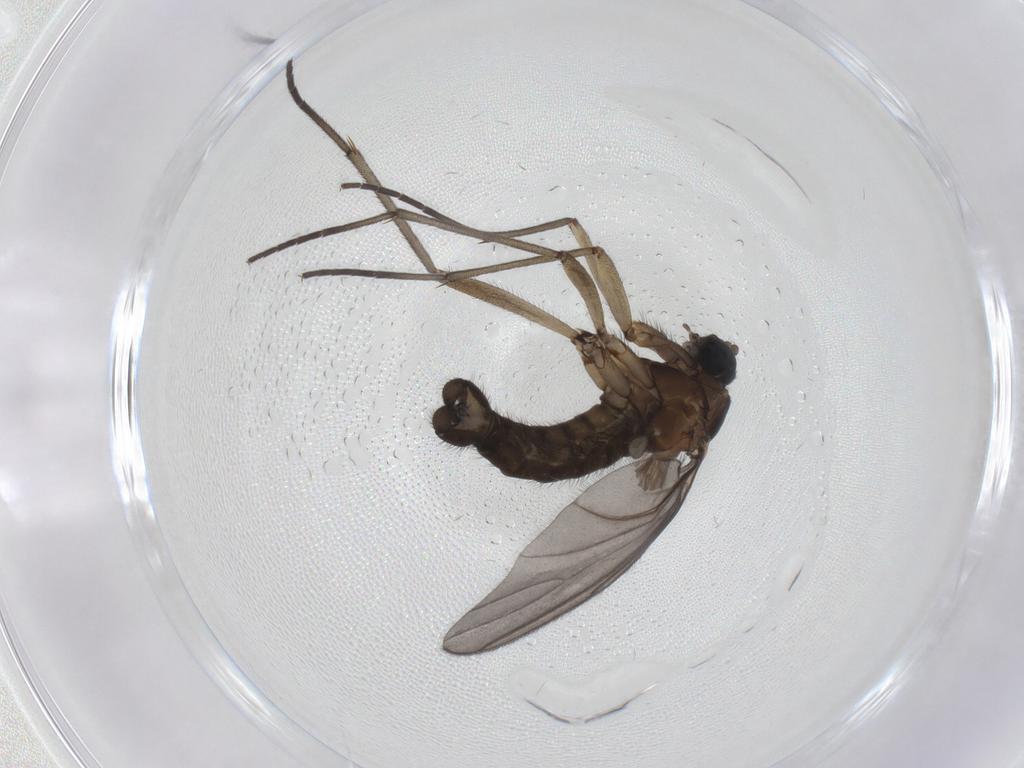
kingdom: Animalia
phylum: Arthropoda
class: Insecta
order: Diptera
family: Sciaridae
